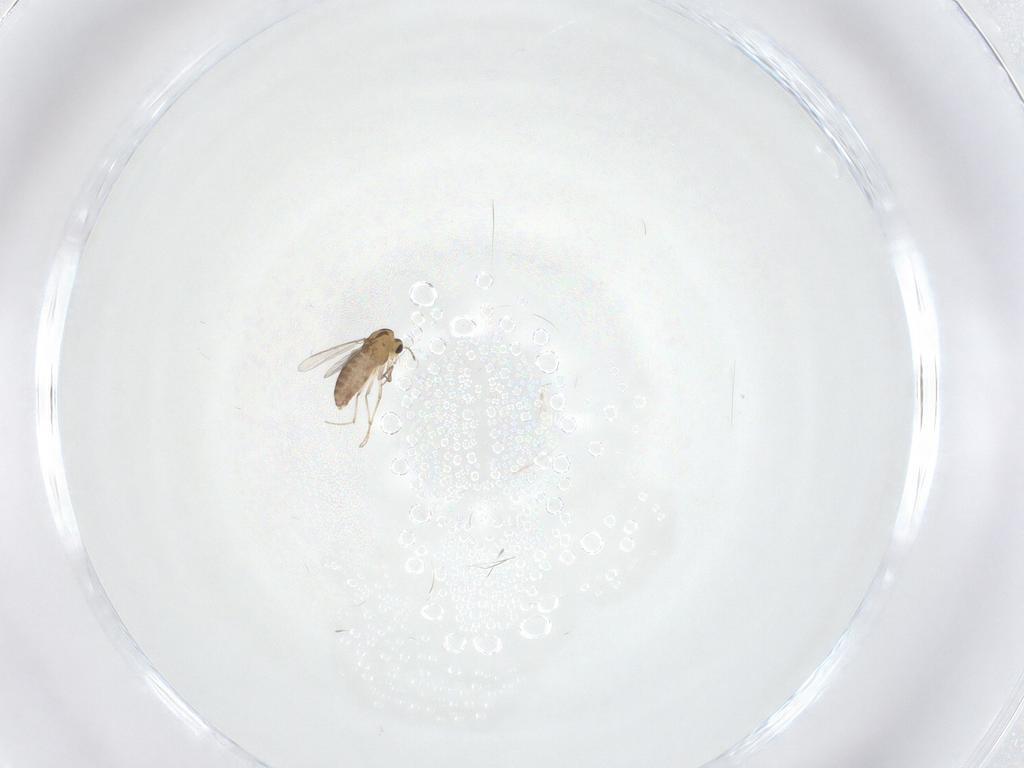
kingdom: Animalia
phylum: Arthropoda
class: Insecta
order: Diptera
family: Chironomidae
